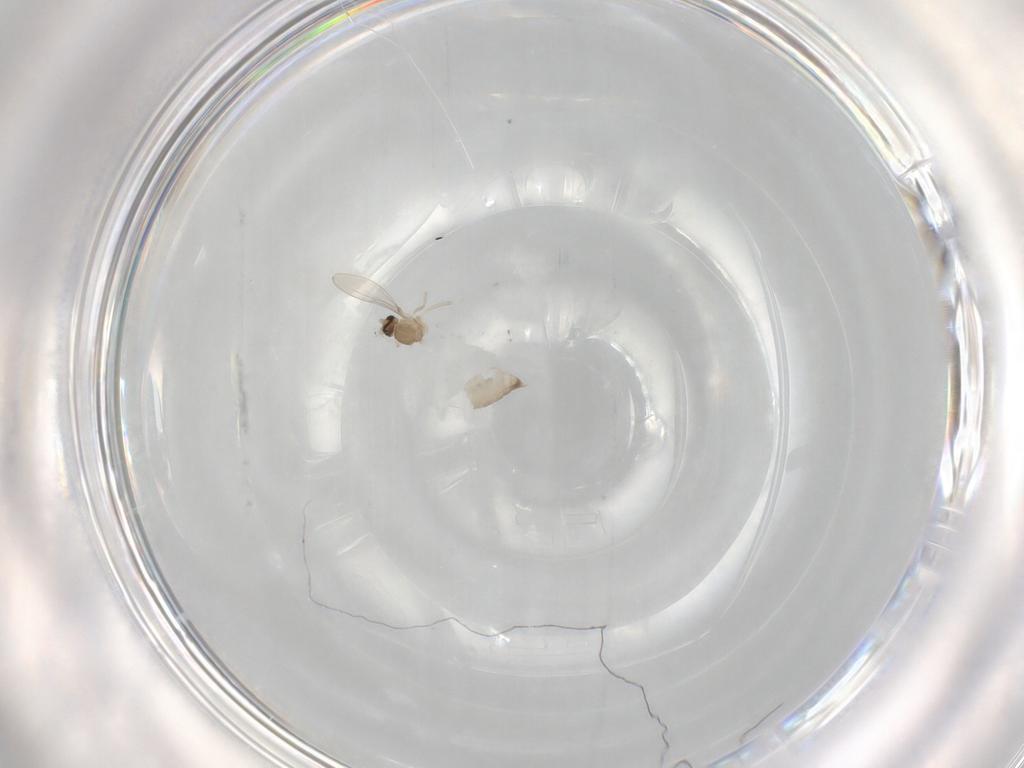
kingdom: Animalia
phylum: Arthropoda
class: Insecta
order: Diptera
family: Cecidomyiidae
